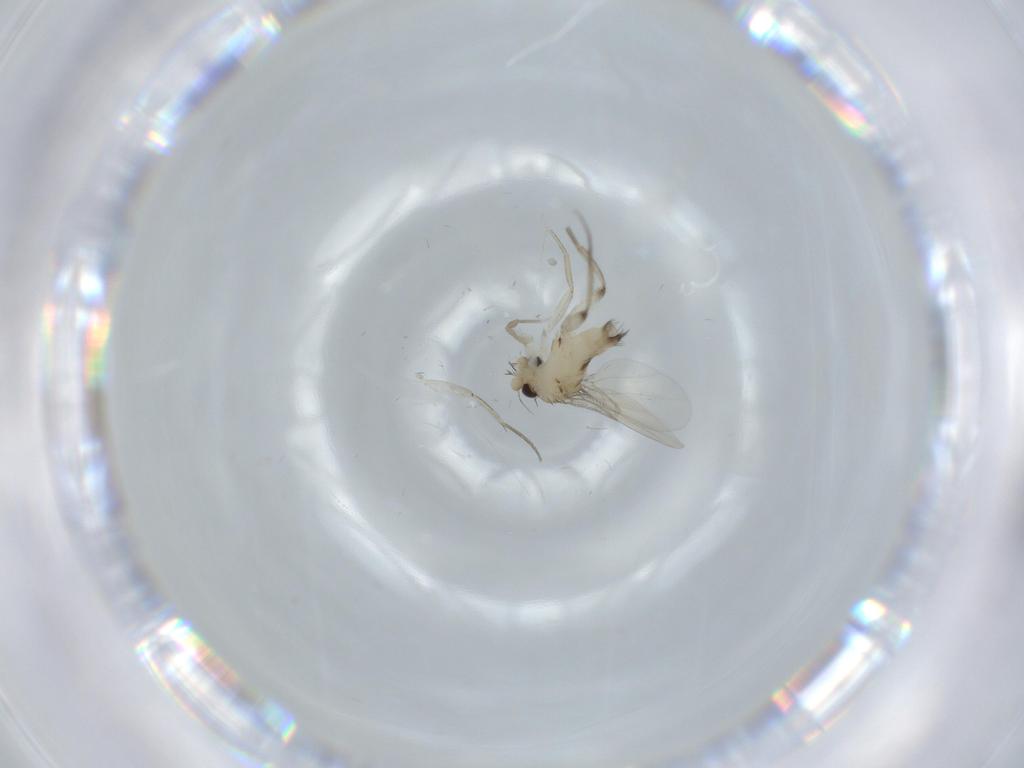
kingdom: Animalia
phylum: Arthropoda
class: Insecta
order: Diptera
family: Phoridae
